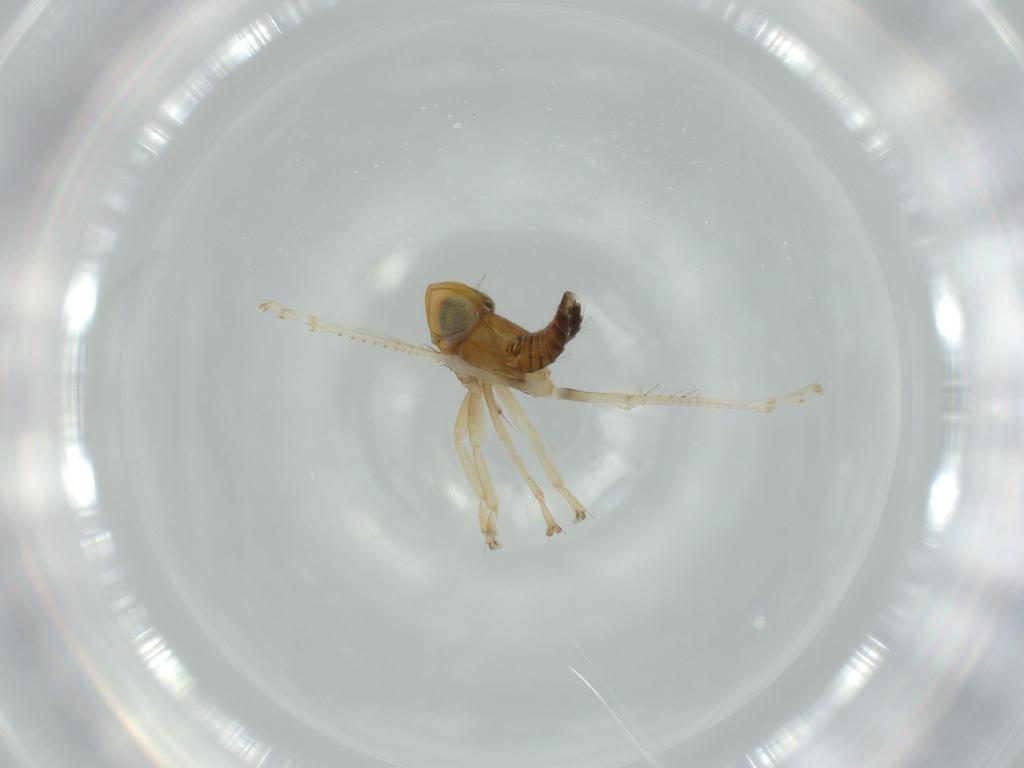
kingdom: Animalia
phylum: Arthropoda
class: Insecta
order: Hemiptera
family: Cicadellidae
